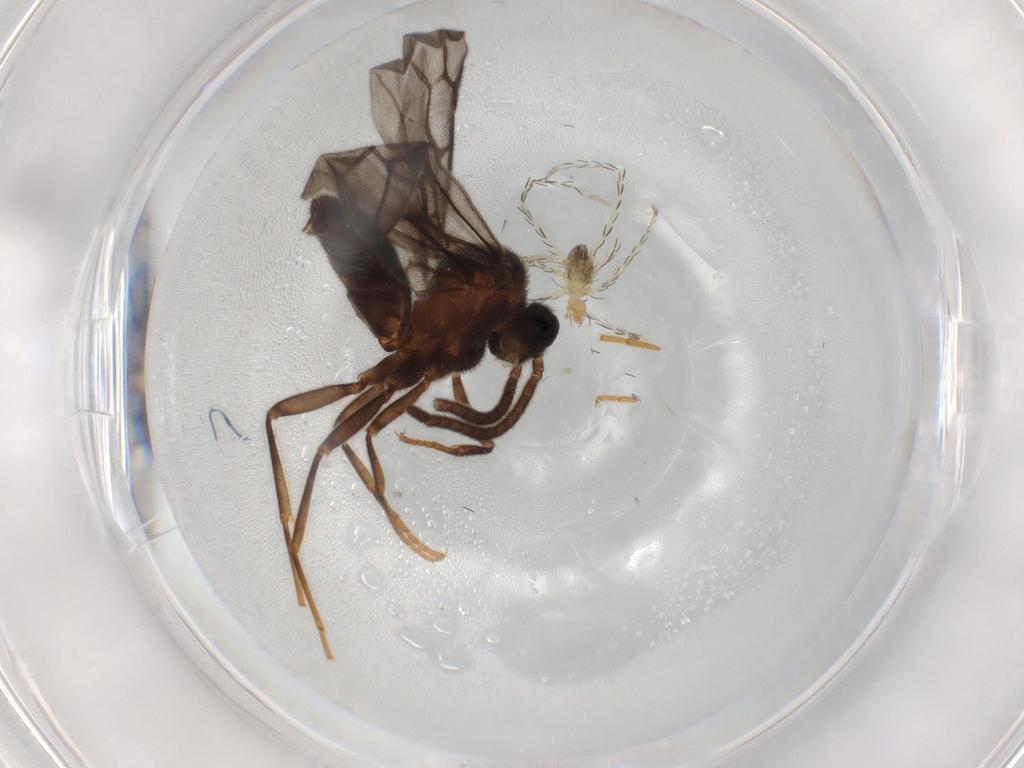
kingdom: Animalia
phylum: Arthropoda
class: Insecta
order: Hymenoptera
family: Formicidae
